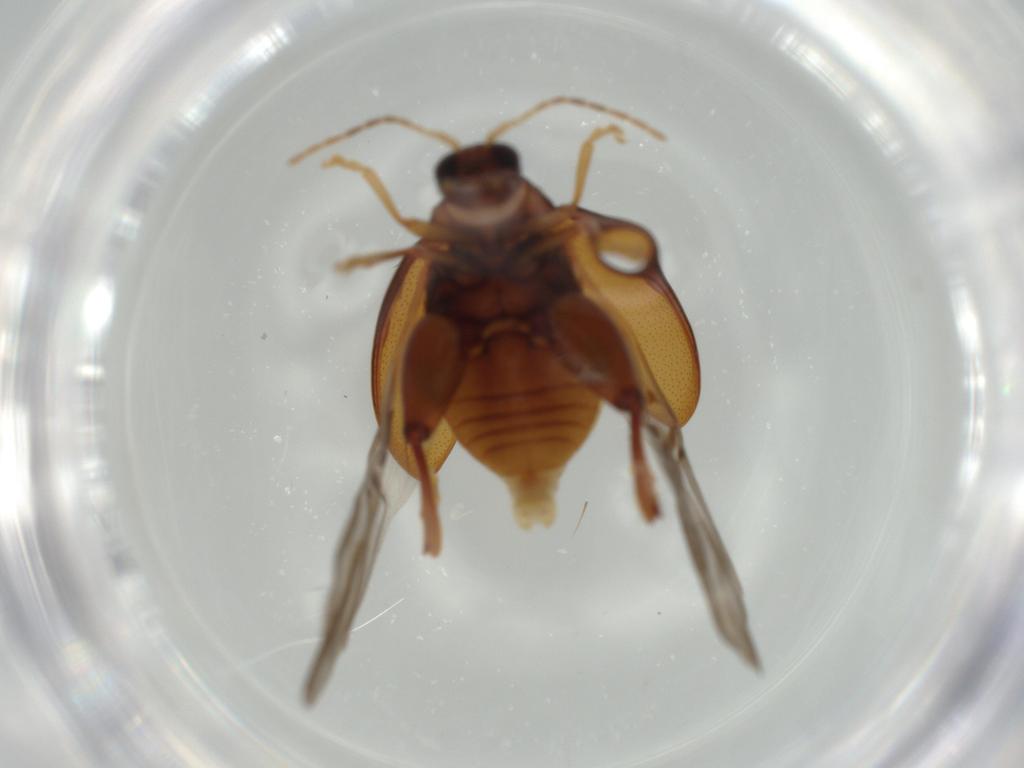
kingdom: Animalia
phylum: Arthropoda
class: Insecta
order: Coleoptera
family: Chrysomelidae
